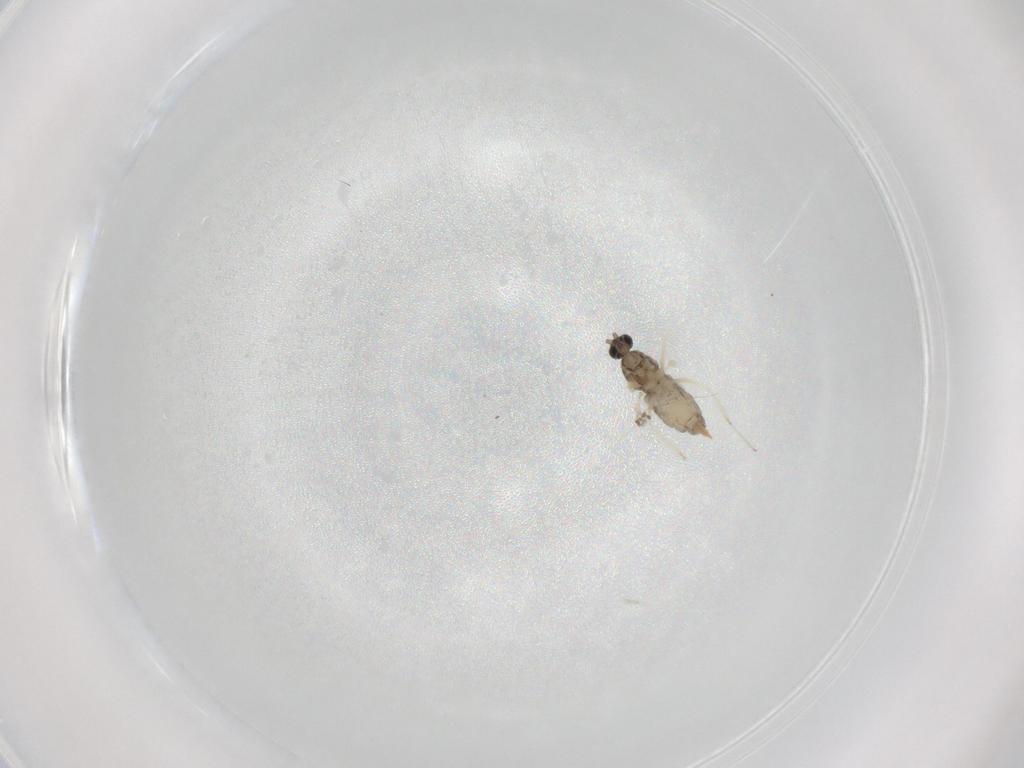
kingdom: Animalia
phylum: Arthropoda
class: Insecta
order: Diptera
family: Cecidomyiidae
